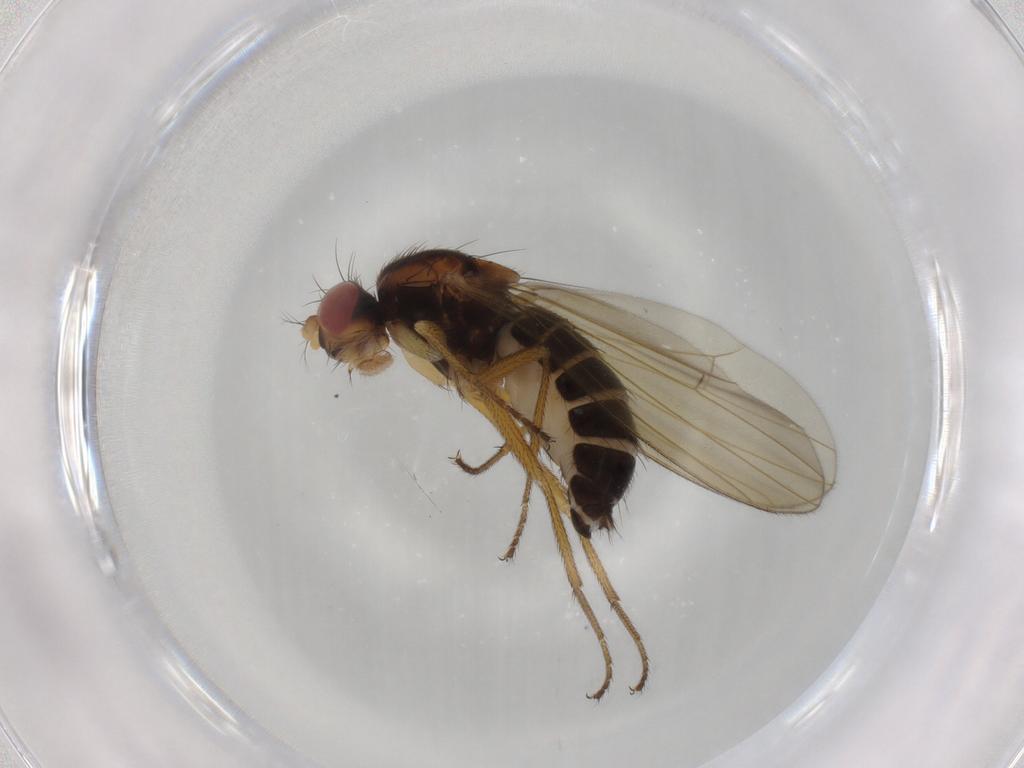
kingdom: Animalia
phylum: Arthropoda
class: Insecta
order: Diptera
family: Drosophilidae
